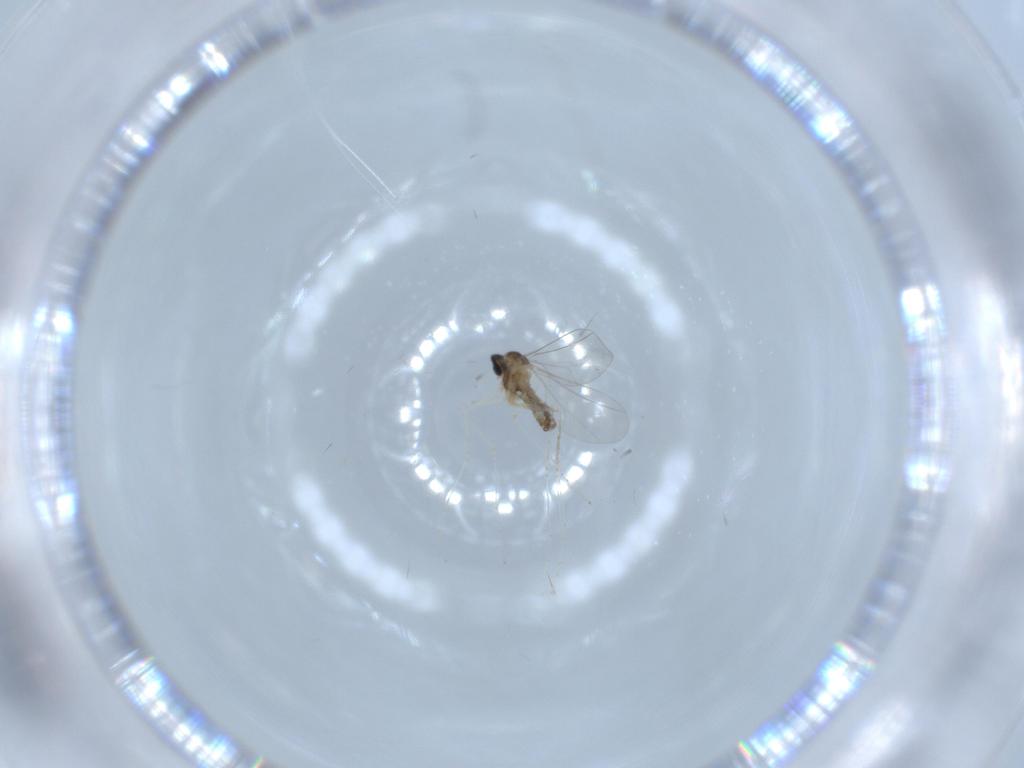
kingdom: Animalia
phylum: Arthropoda
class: Insecta
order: Diptera
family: Cecidomyiidae
